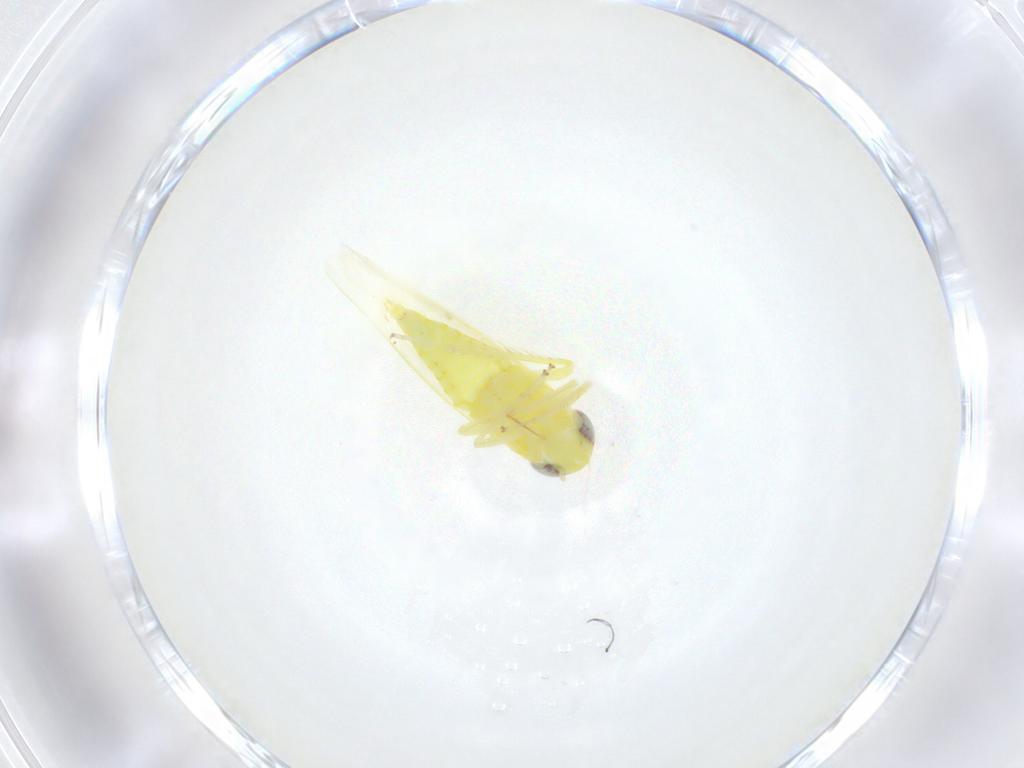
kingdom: Animalia
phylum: Arthropoda
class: Insecta
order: Hemiptera
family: Cicadellidae
